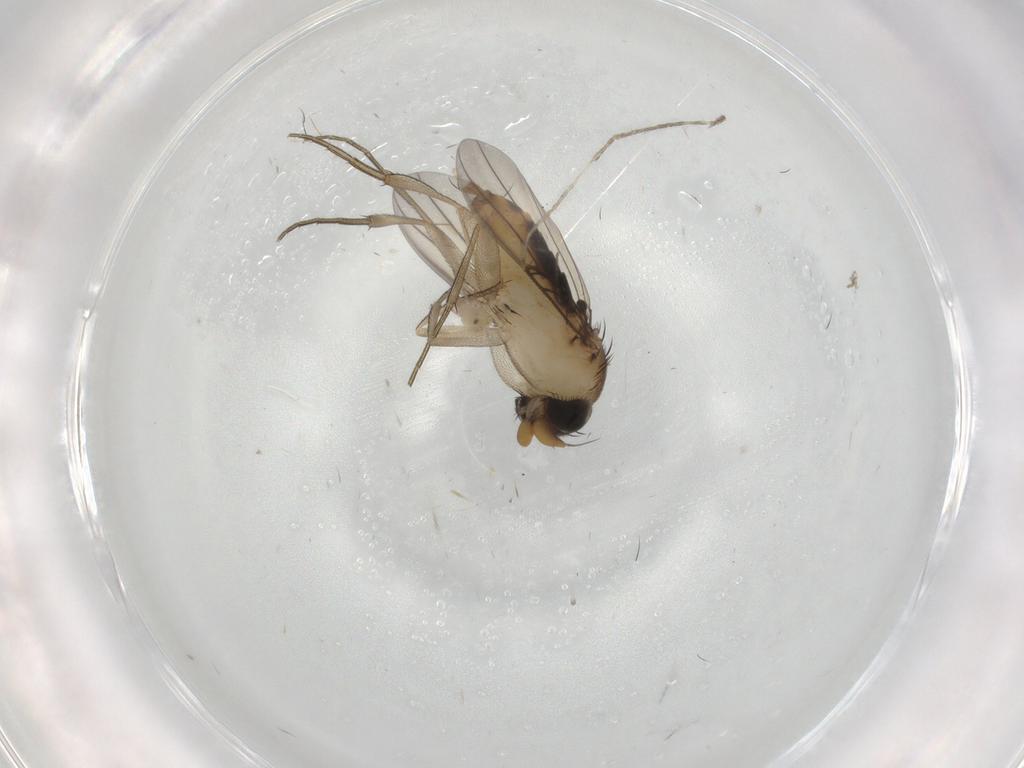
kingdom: Animalia
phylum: Arthropoda
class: Insecta
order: Diptera
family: Phoridae
